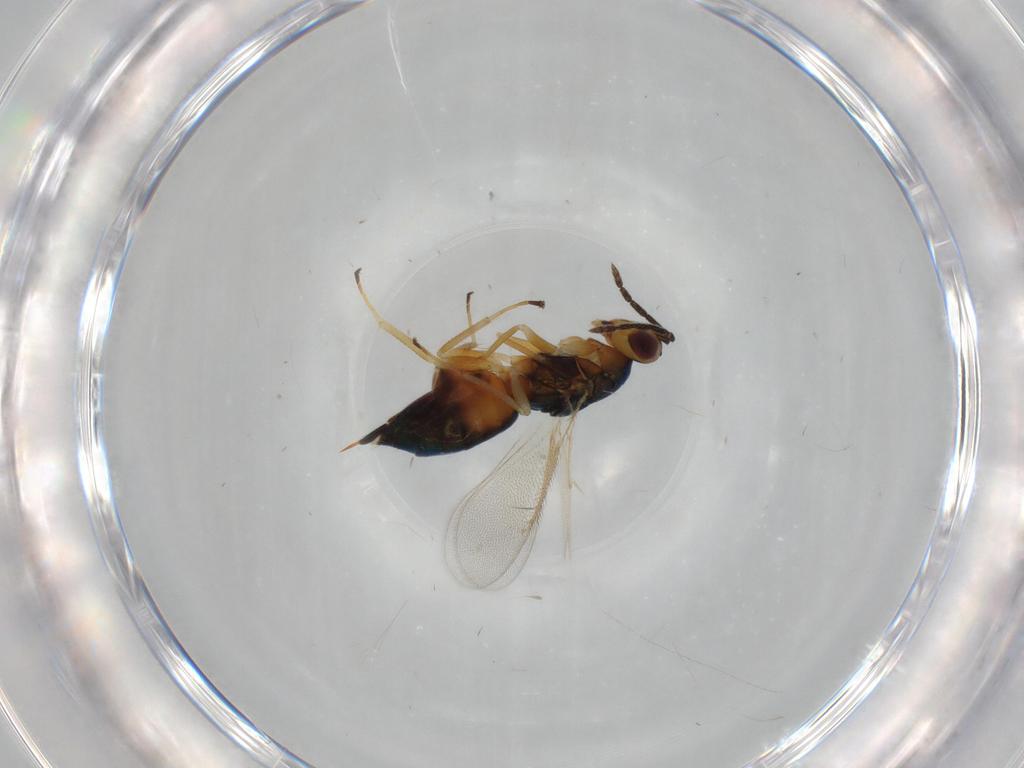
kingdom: Animalia
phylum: Arthropoda
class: Insecta
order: Hymenoptera
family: Eulophidae
